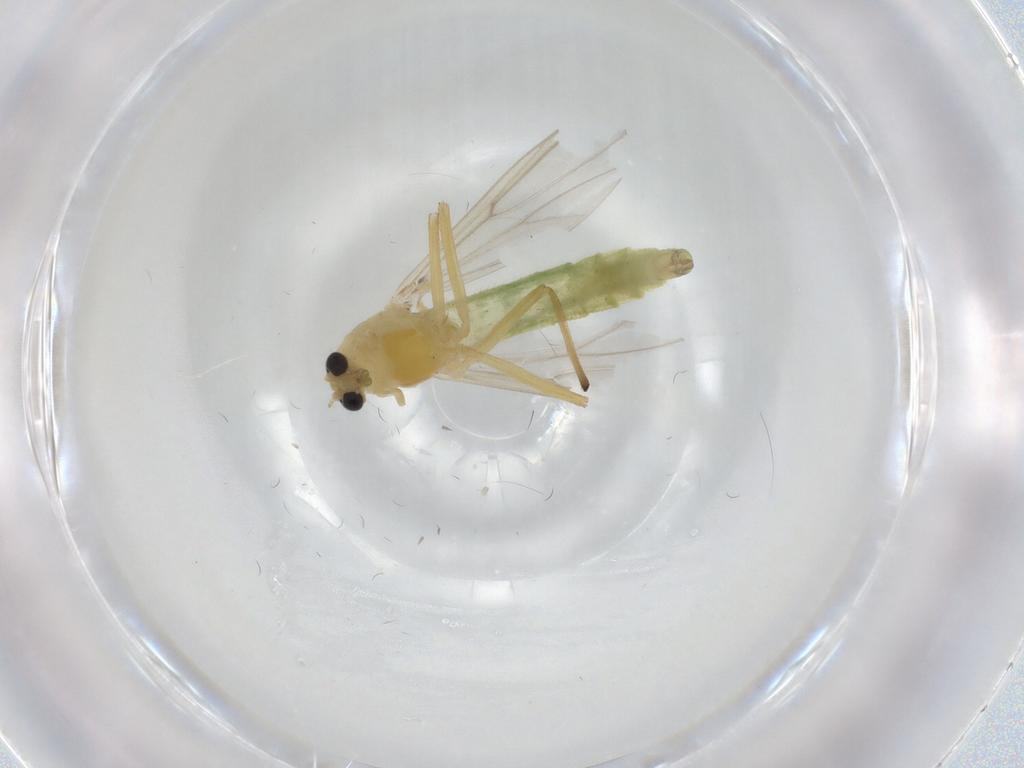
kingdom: Animalia
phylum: Arthropoda
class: Insecta
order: Diptera
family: Chironomidae
